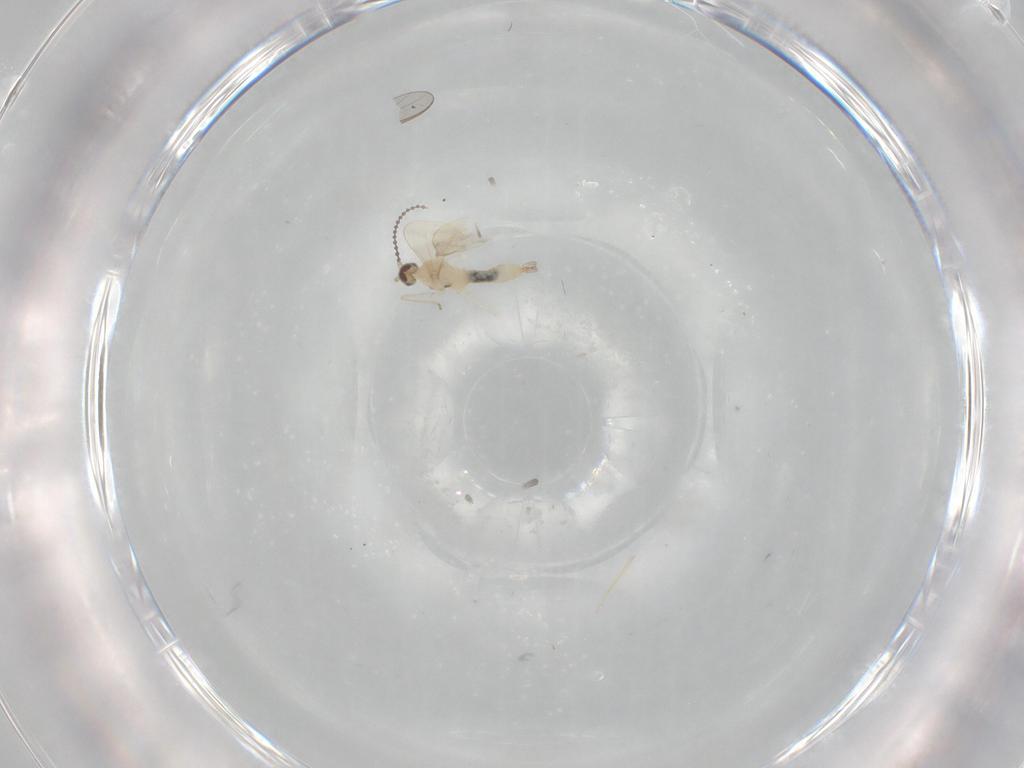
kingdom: Animalia
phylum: Arthropoda
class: Insecta
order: Diptera
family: Cecidomyiidae
